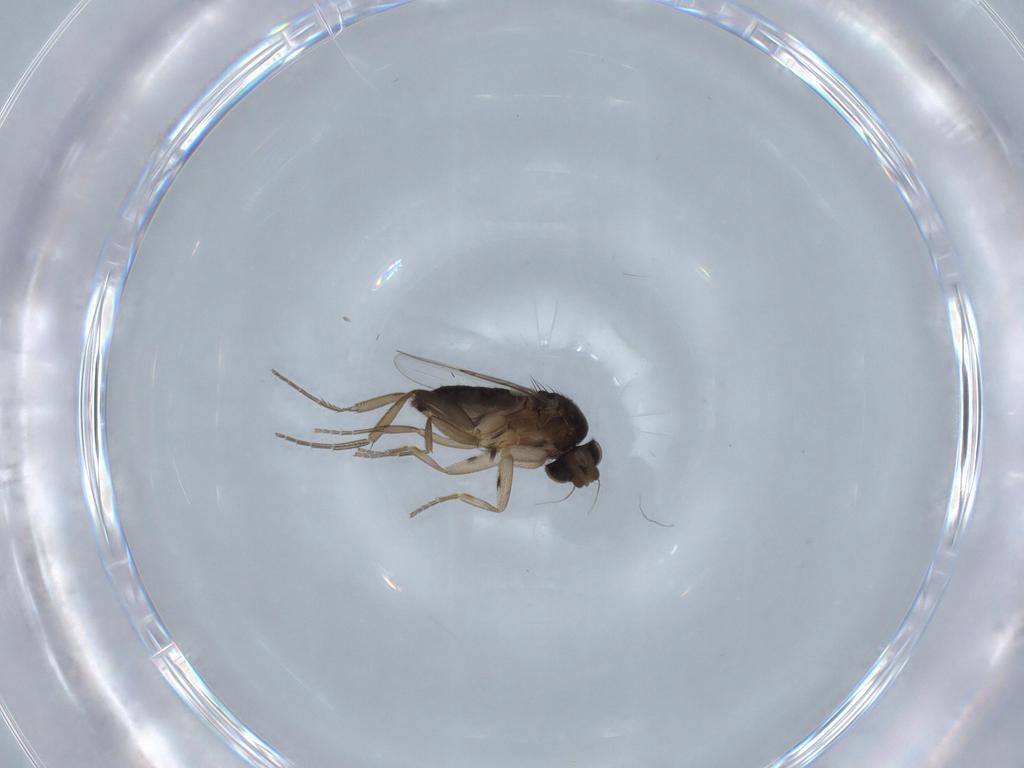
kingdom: Animalia
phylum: Arthropoda
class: Insecta
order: Diptera
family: Phoridae
